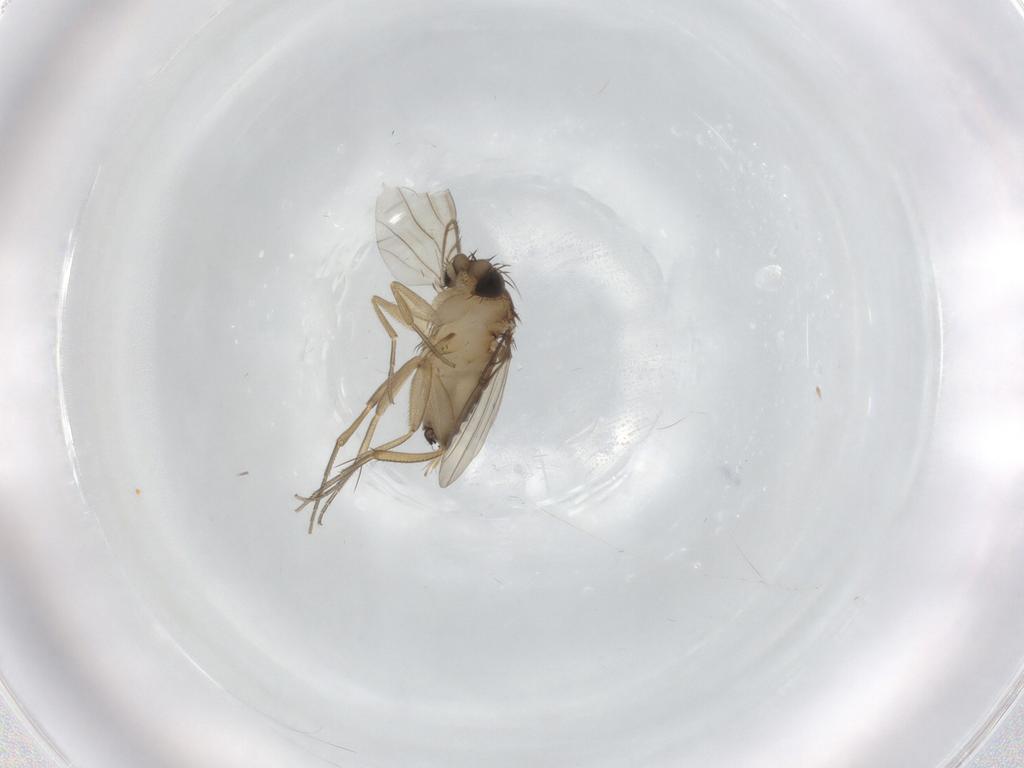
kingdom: Animalia
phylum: Arthropoda
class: Insecta
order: Diptera
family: Phoridae
